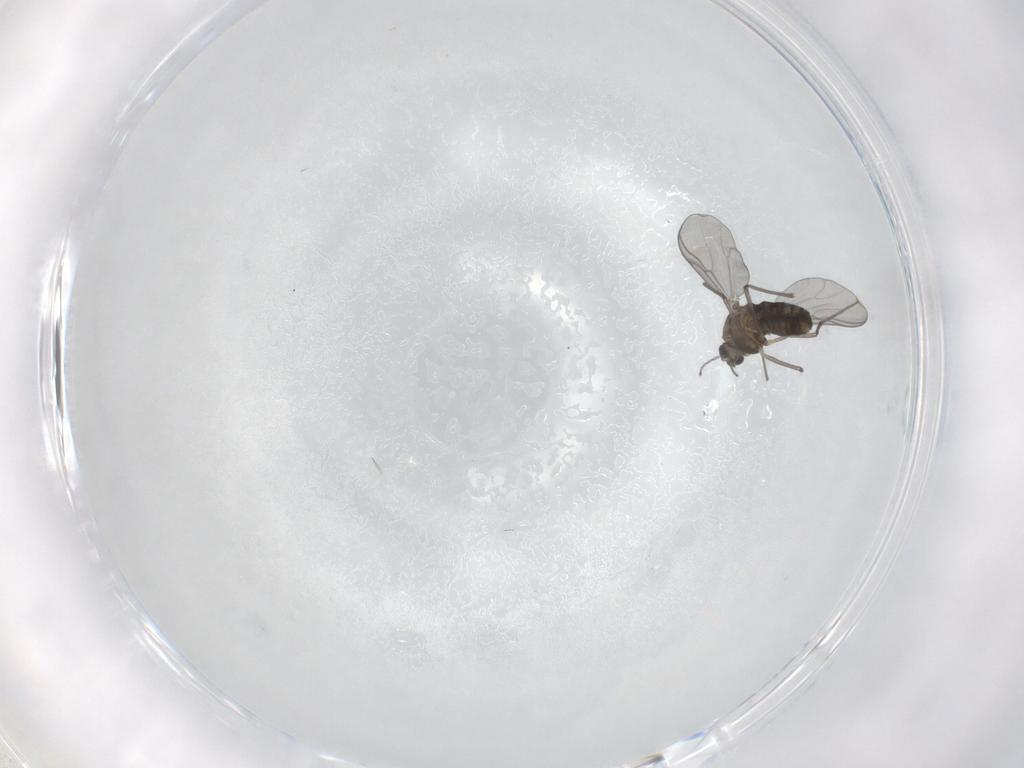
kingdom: Animalia
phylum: Arthropoda
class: Insecta
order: Diptera
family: Chironomidae
